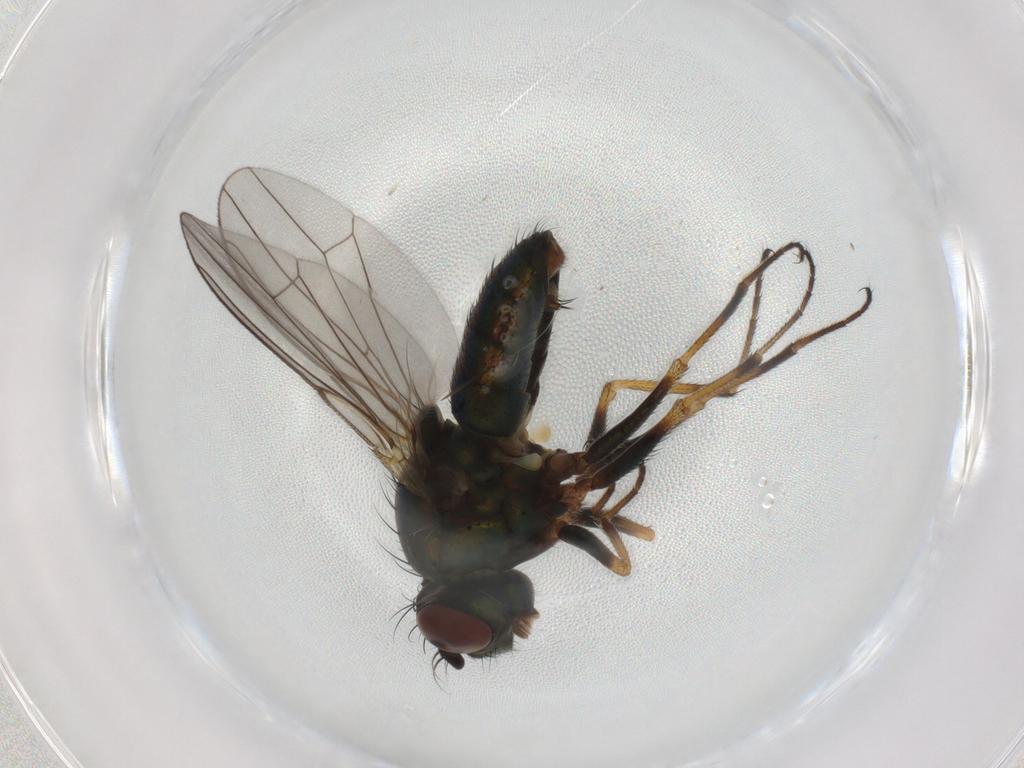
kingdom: Animalia
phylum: Arthropoda
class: Insecta
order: Diptera
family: Ephydridae
